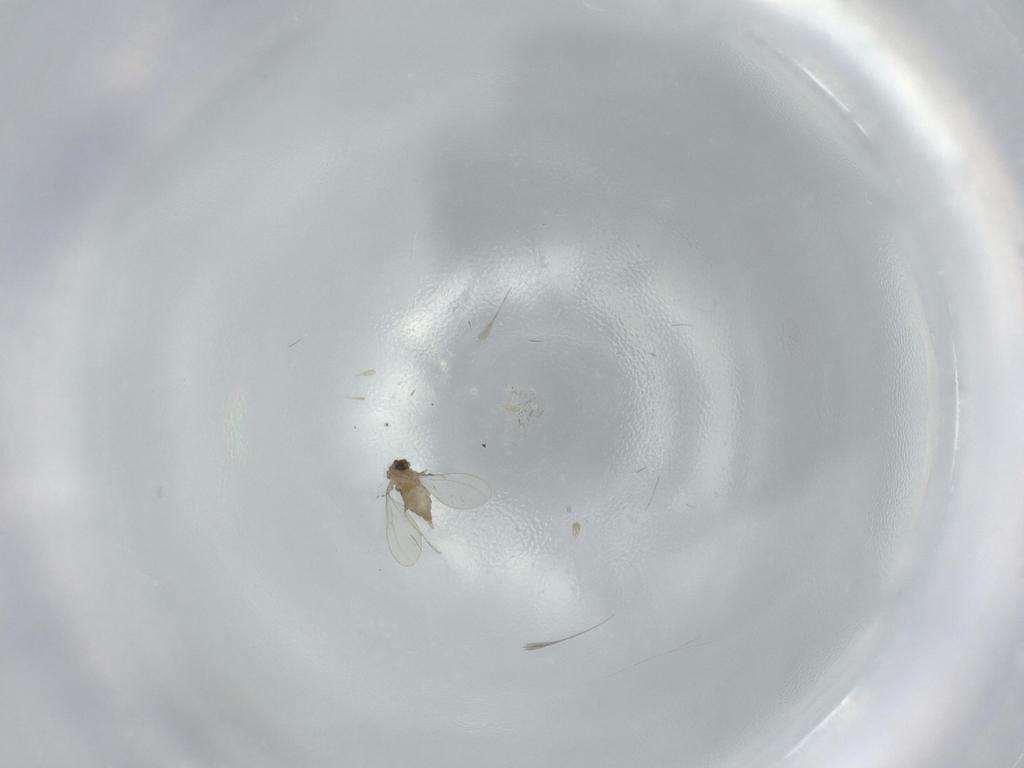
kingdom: Animalia
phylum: Arthropoda
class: Insecta
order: Diptera
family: Cecidomyiidae
